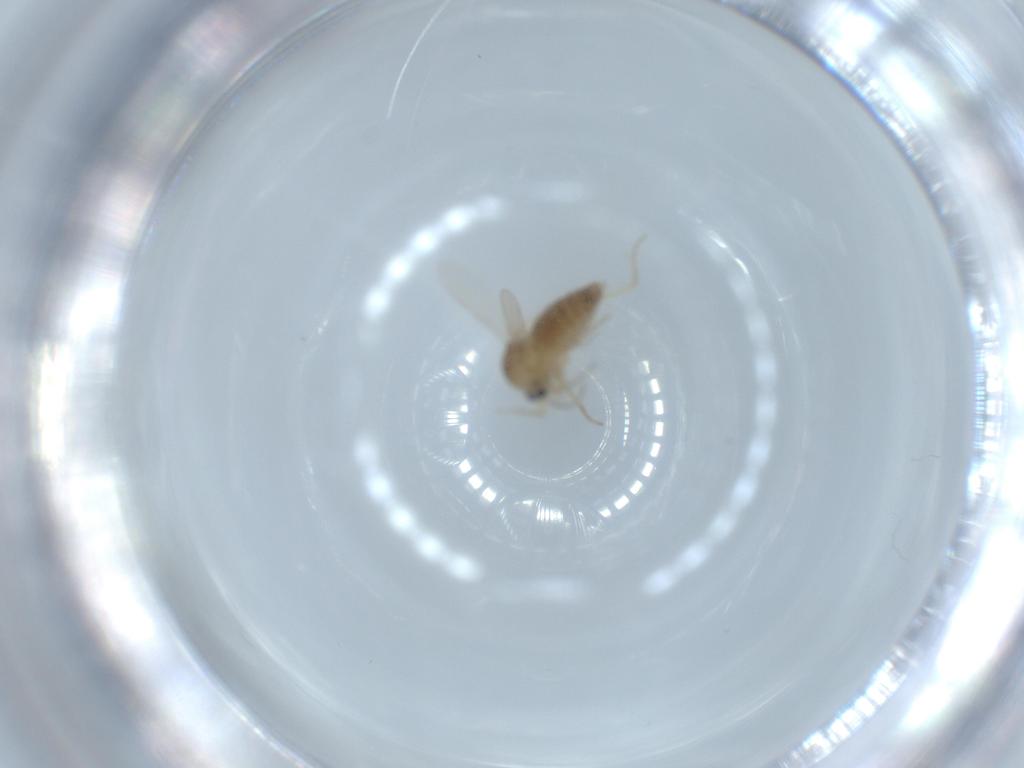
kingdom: Animalia
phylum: Arthropoda
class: Insecta
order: Diptera
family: Ceratopogonidae
